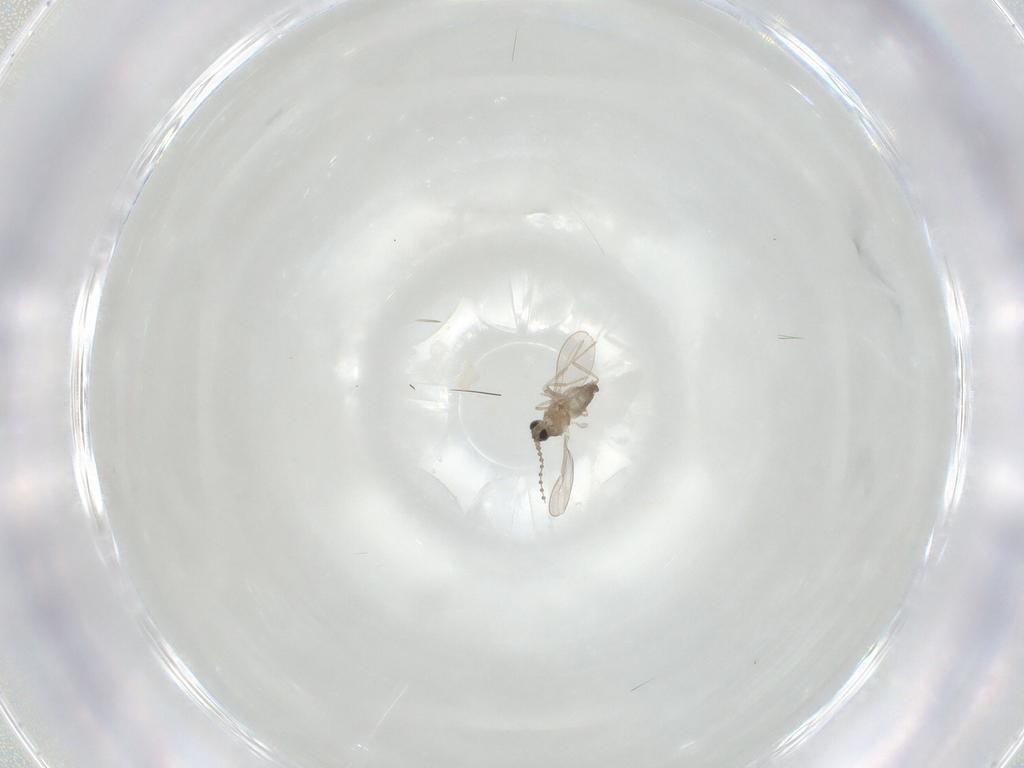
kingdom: Animalia
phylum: Arthropoda
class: Insecta
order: Diptera
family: Cecidomyiidae
